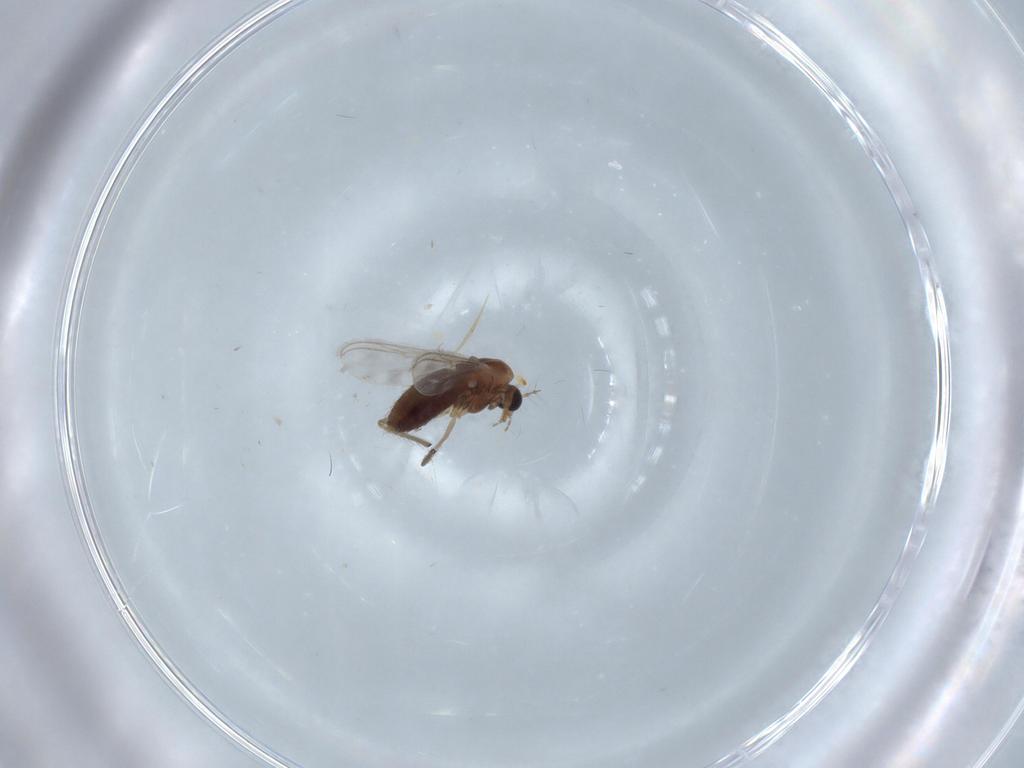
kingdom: Animalia
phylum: Arthropoda
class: Insecta
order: Diptera
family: Chironomidae
